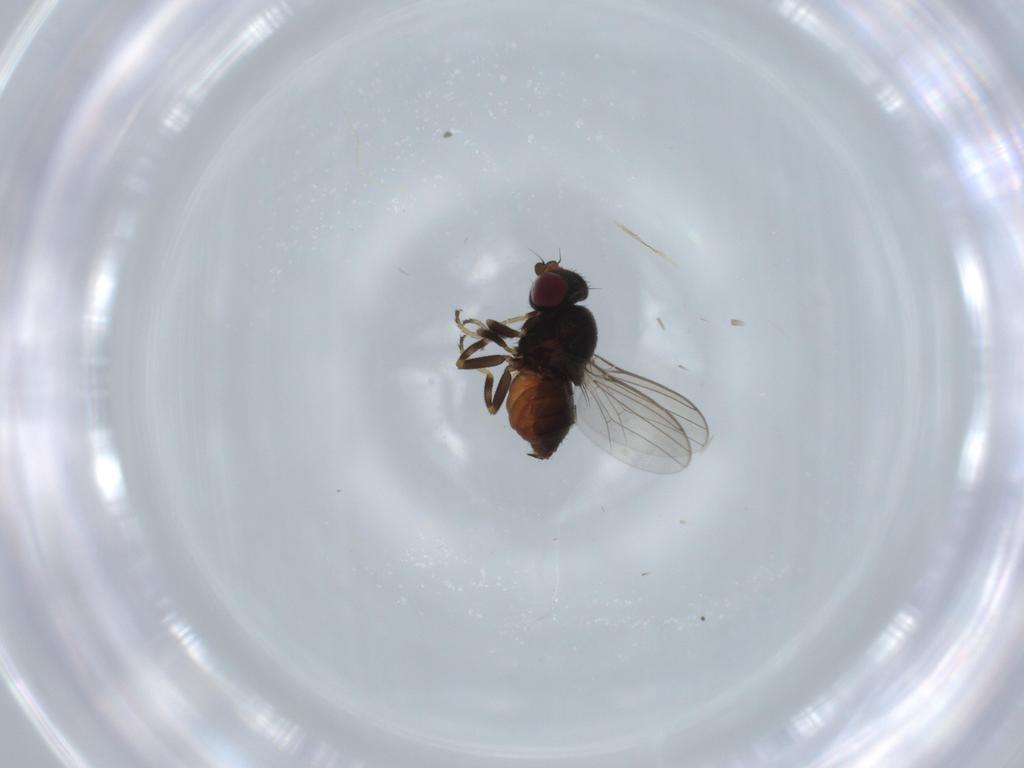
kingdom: Animalia
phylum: Arthropoda
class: Insecta
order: Diptera
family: Chloropidae
